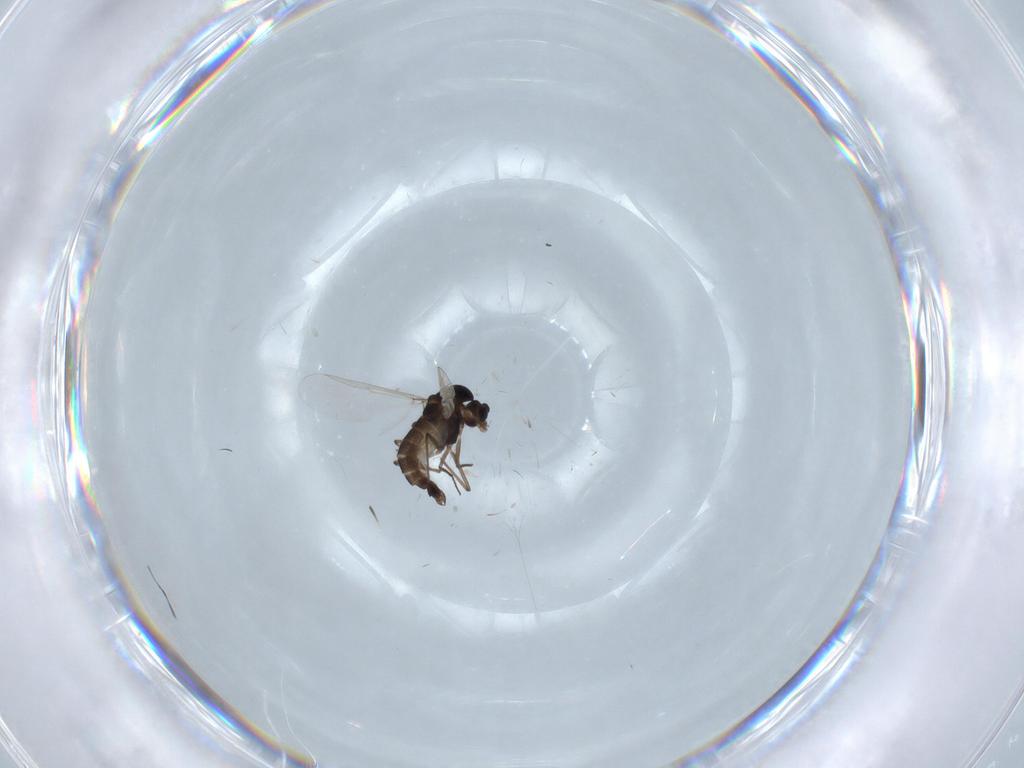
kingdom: Animalia
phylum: Arthropoda
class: Insecta
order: Diptera
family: Chironomidae
